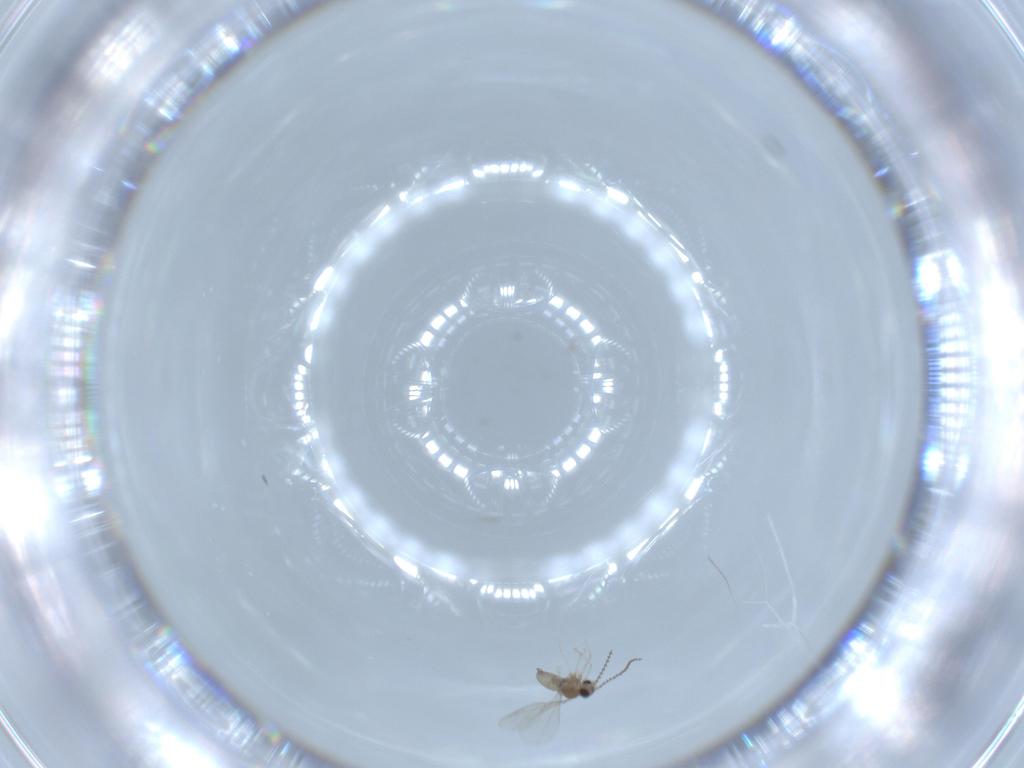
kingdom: Animalia
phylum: Arthropoda
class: Insecta
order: Diptera
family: Cecidomyiidae
